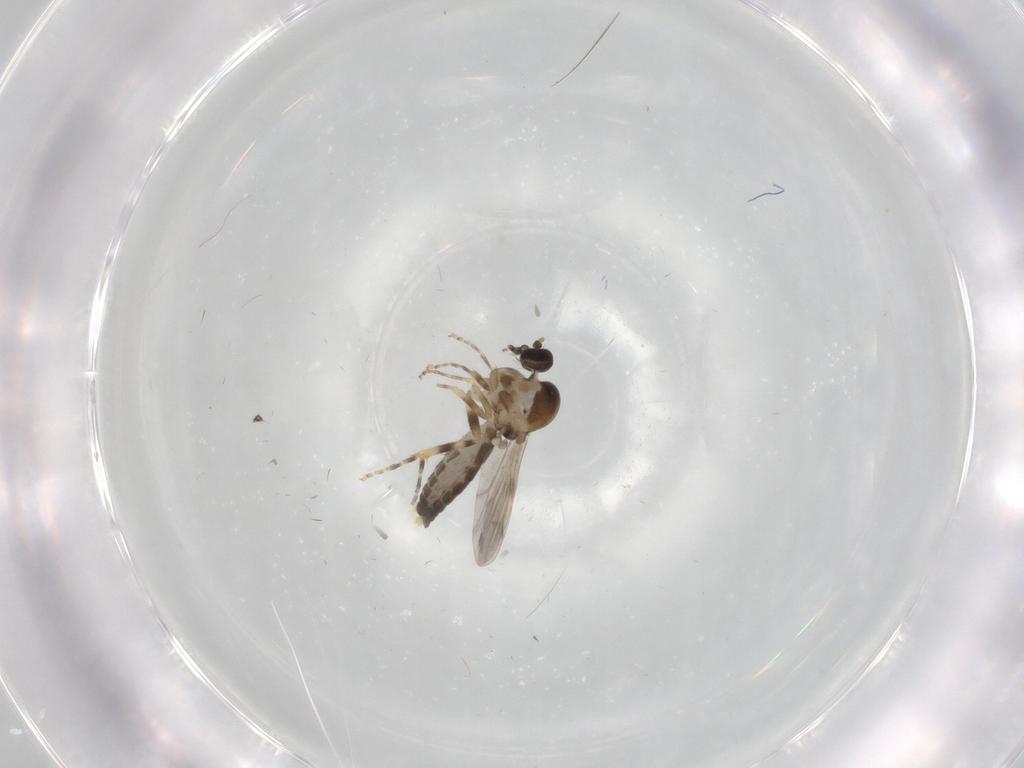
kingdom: Animalia
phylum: Arthropoda
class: Insecta
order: Diptera
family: Ceratopogonidae
